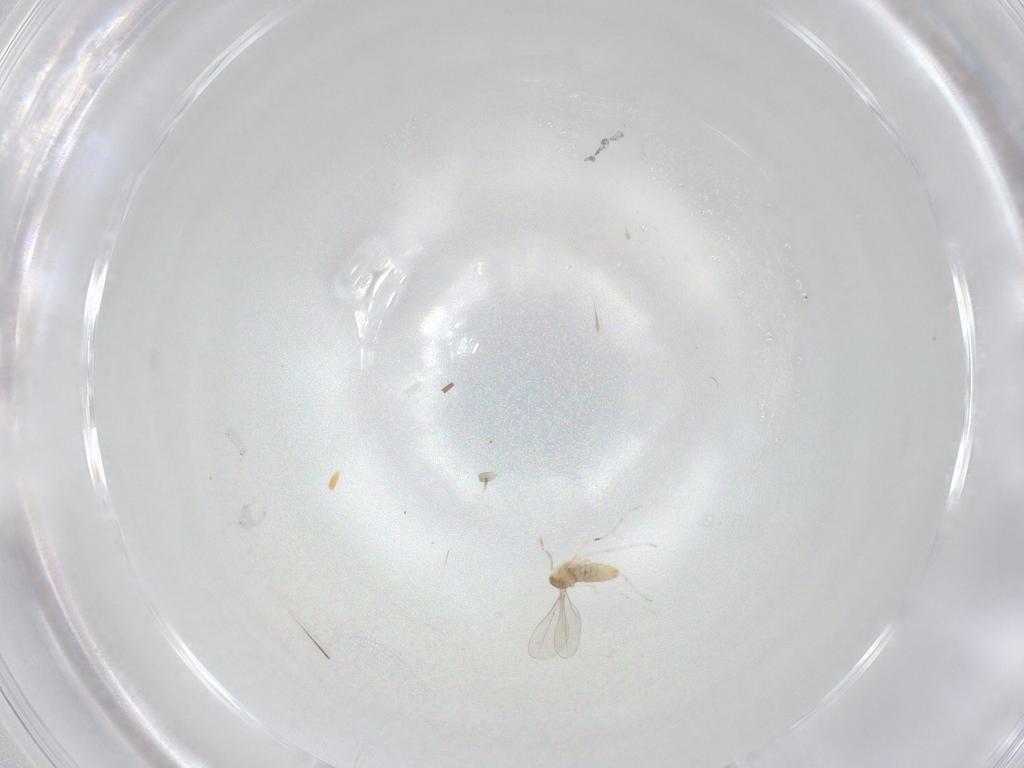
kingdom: Animalia
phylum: Arthropoda
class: Insecta
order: Diptera
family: Cecidomyiidae
